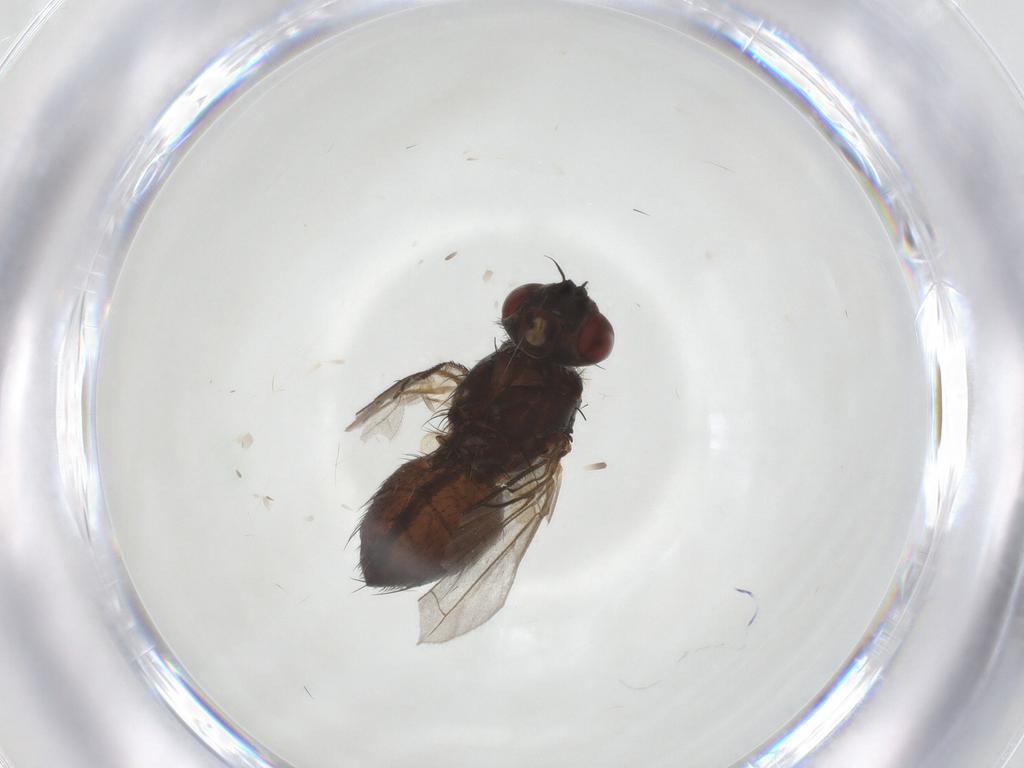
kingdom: Animalia
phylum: Arthropoda
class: Insecta
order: Diptera
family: Tachinidae
